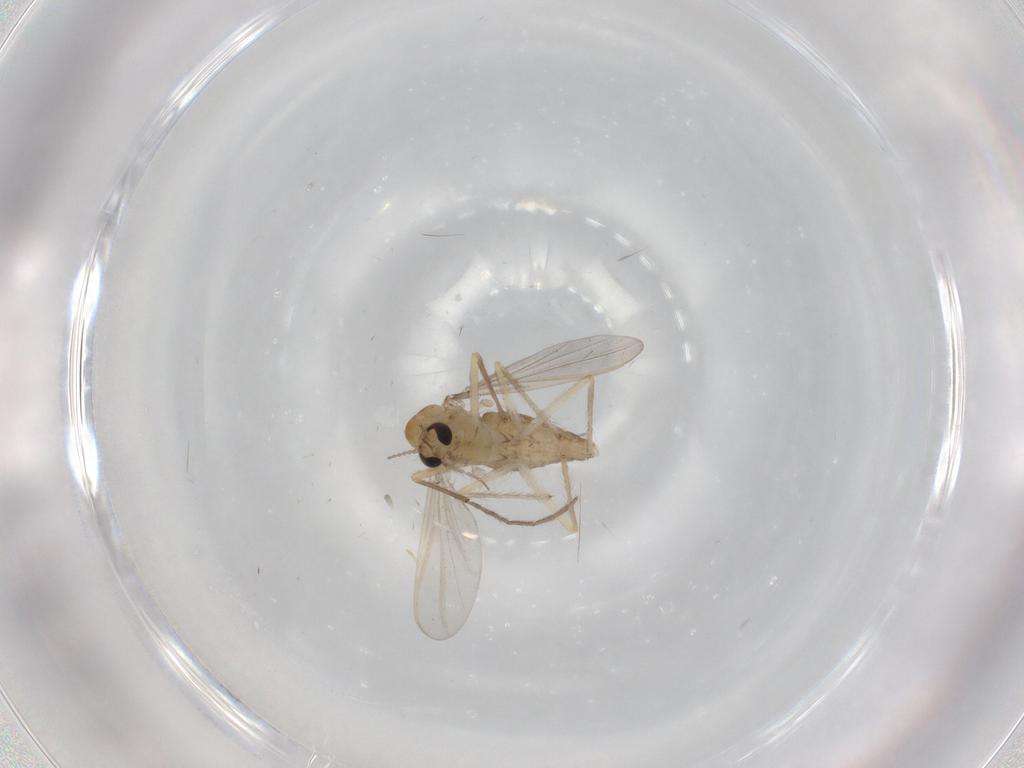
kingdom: Animalia
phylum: Arthropoda
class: Insecta
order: Diptera
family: Chironomidae
